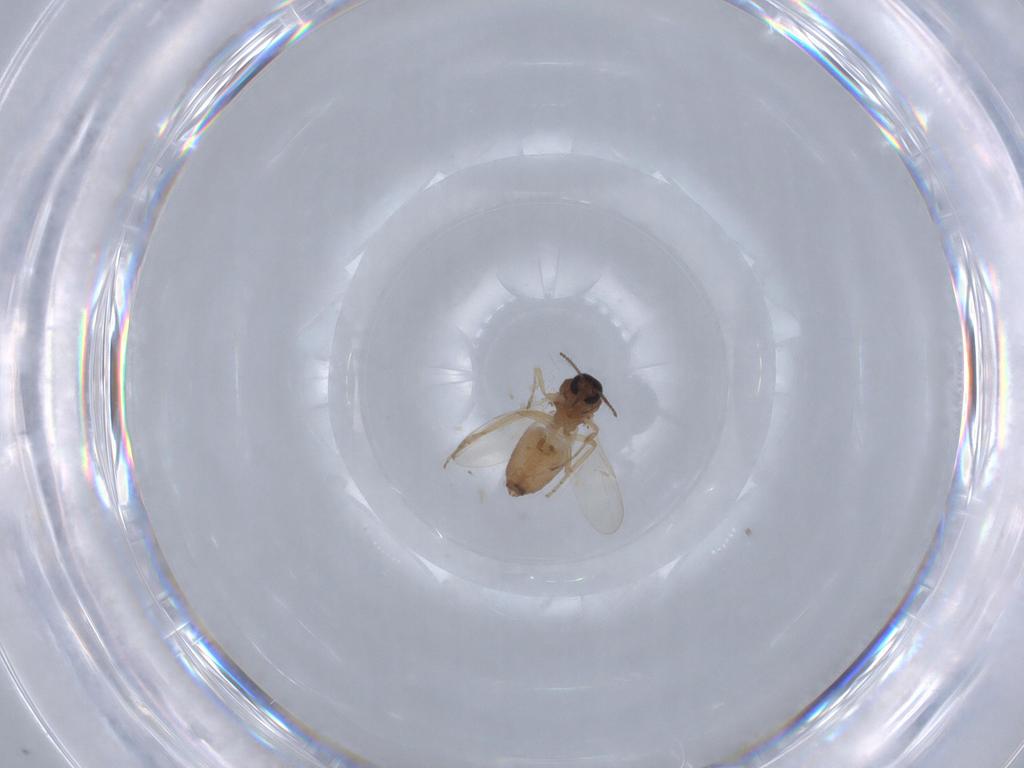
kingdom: Animalia
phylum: Arthropoda
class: Insecta
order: Diptera
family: Ceratopogonidae
